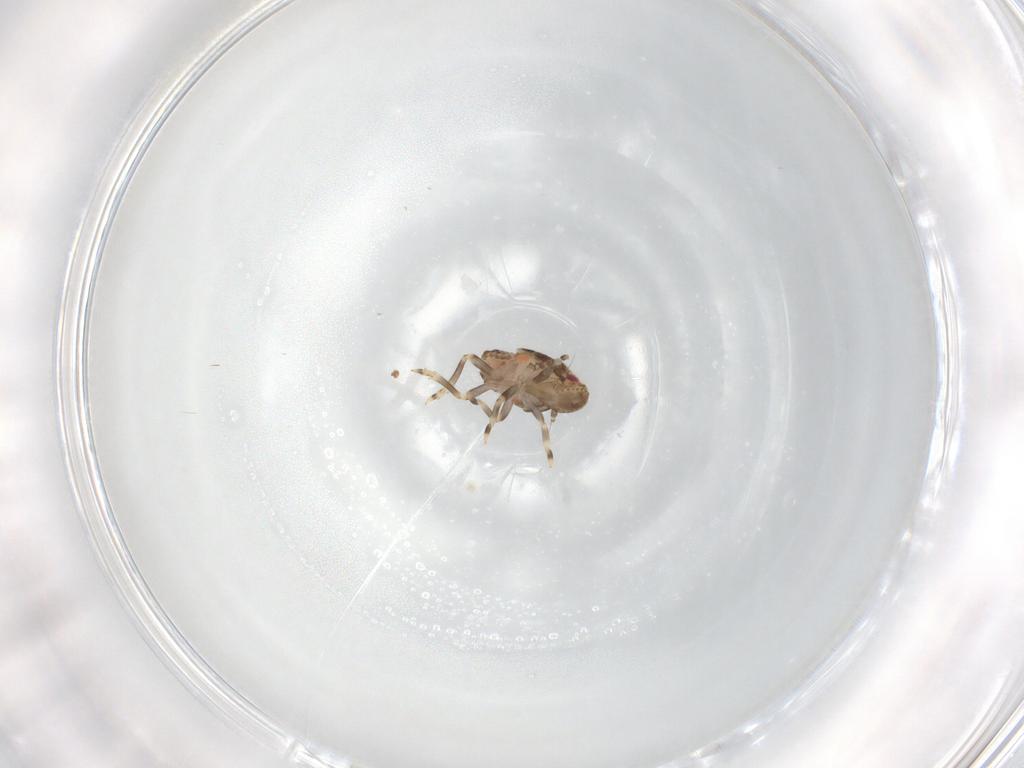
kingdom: Animalia
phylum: Arthropoda
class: Insecta
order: Hemiptera
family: Flatidae
